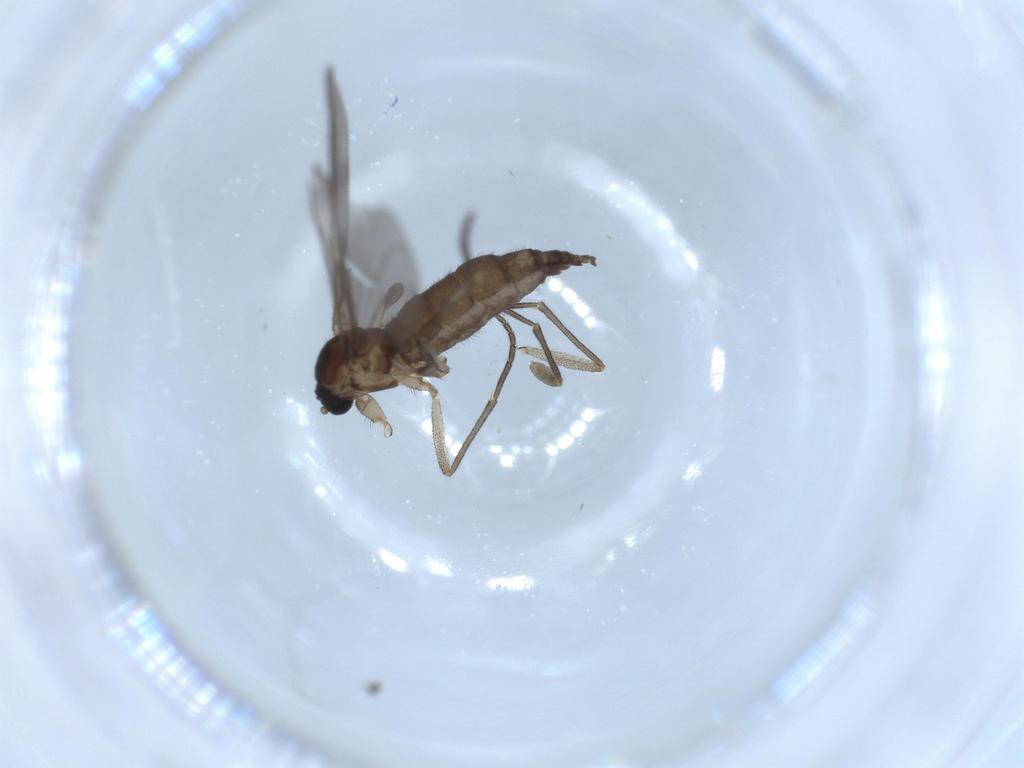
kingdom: Animalia
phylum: Arthropoda
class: Insecta
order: Diptera
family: Sciaridae
